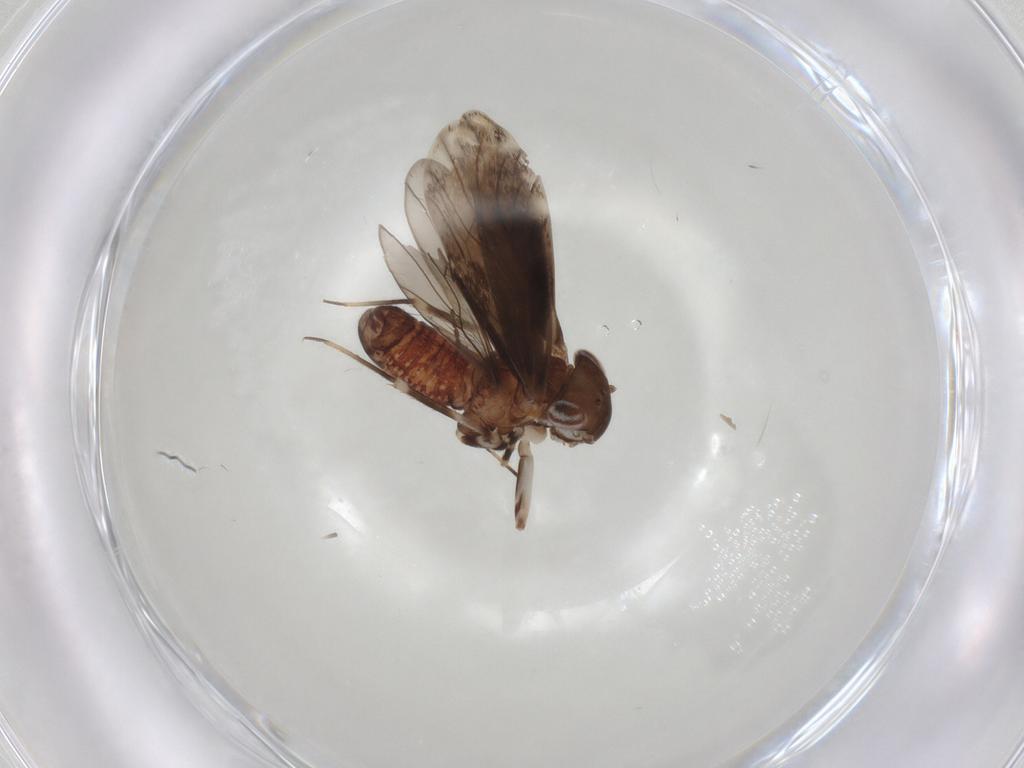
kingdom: Animalia
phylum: Arthropoda
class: Insecta
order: Psocodea
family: Amphientomidae
